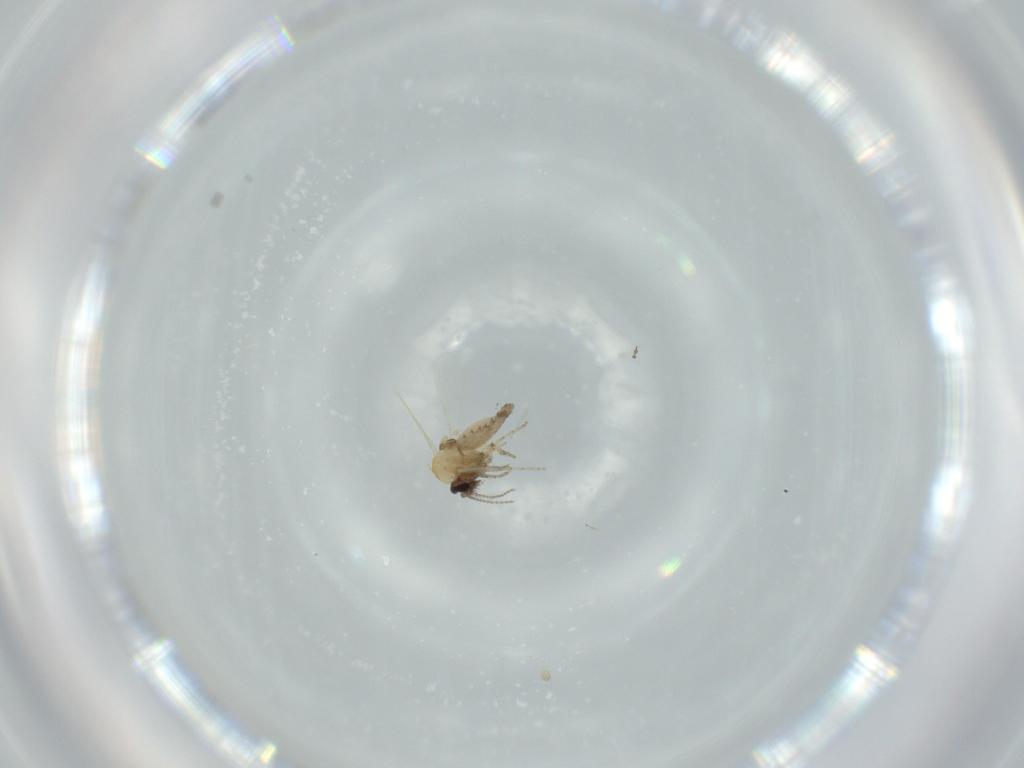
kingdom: Animalia
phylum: Arthropoda
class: Insecta
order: Diptera
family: Ceratopogonidae
